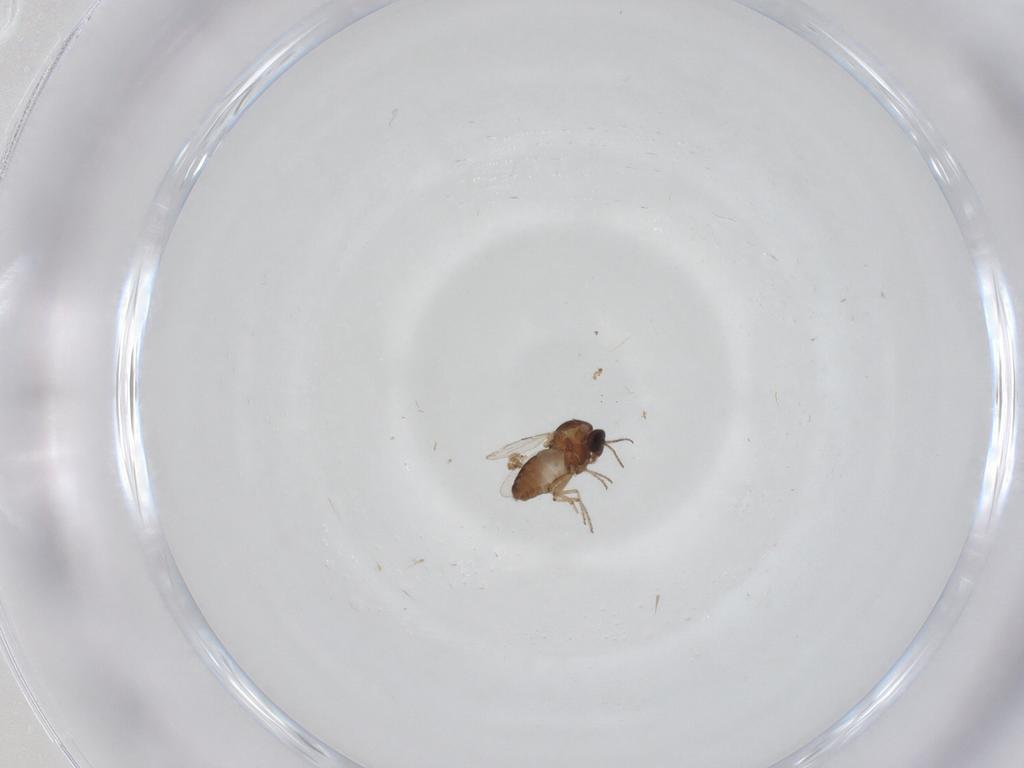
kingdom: Animalia
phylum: Arthropoda
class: Insecta
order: Diptera
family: Ceratopogonidae
